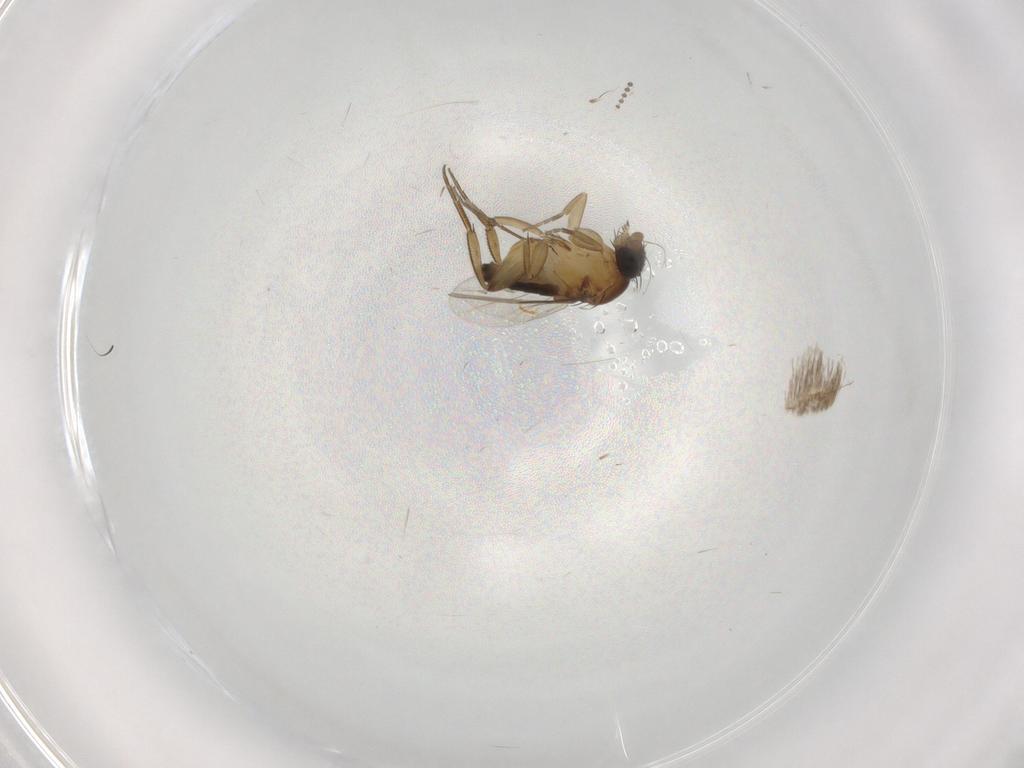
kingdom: Animalia
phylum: Arthropoda
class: Insecta
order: Diptera
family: Phoridae
